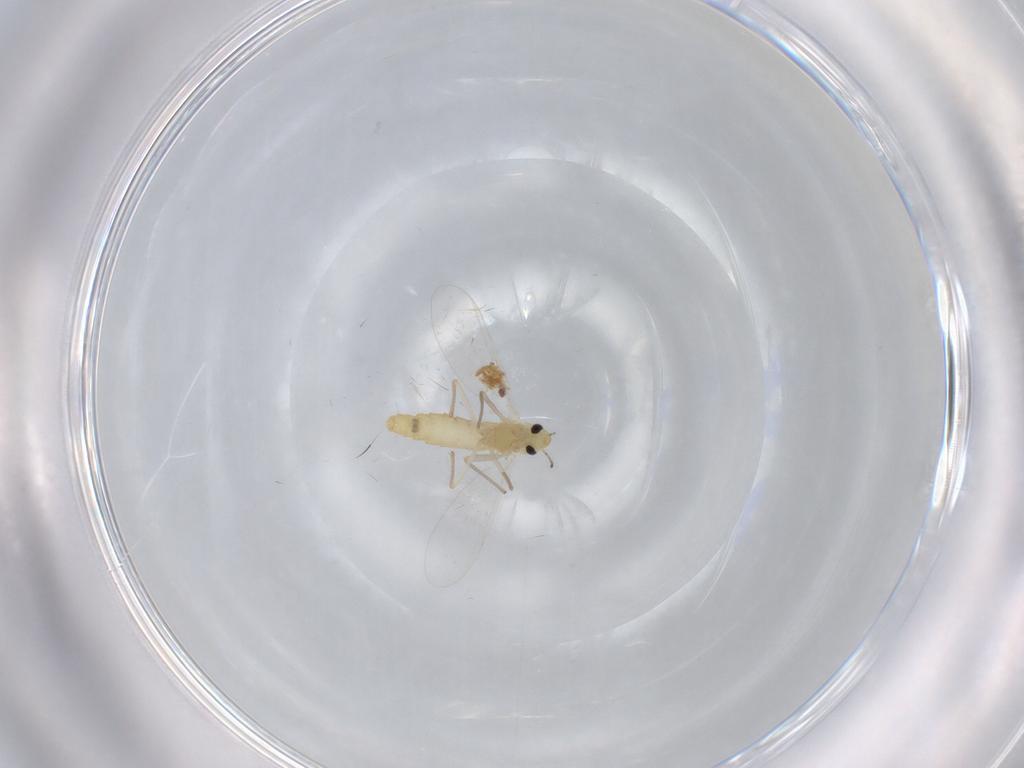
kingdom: Animalia
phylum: Arthropoda
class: Insecta
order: Diptera
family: Chironomidae
